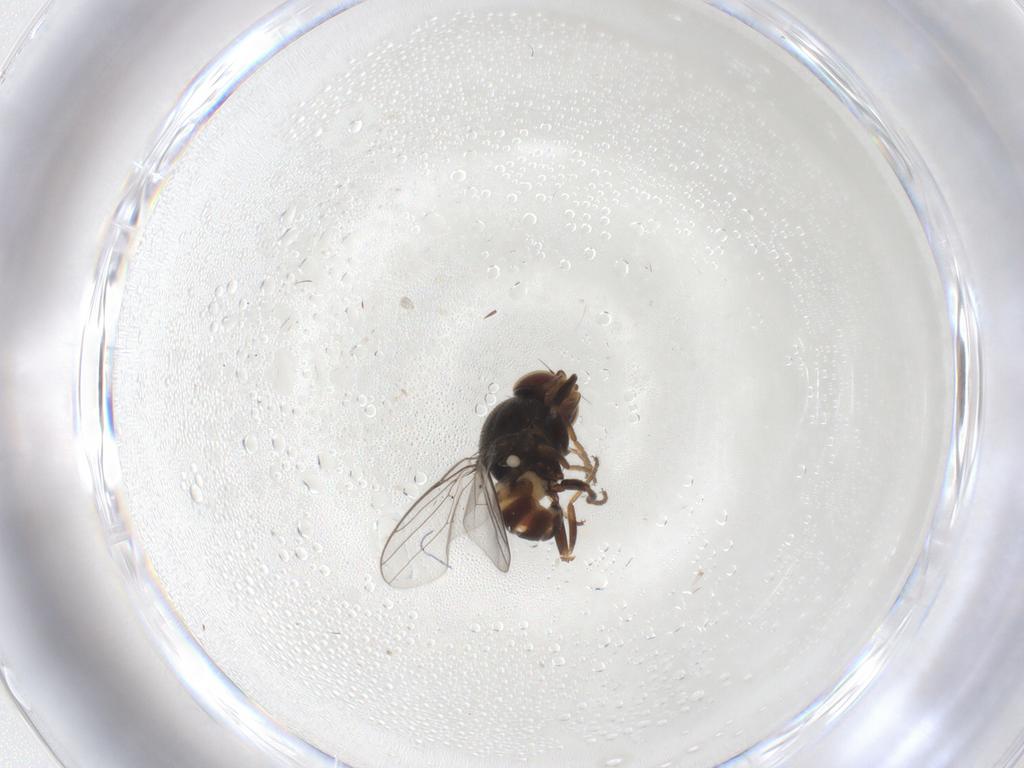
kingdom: Animalia
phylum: Arthropoda
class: Insecta
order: Diptera
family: Chloropidae
